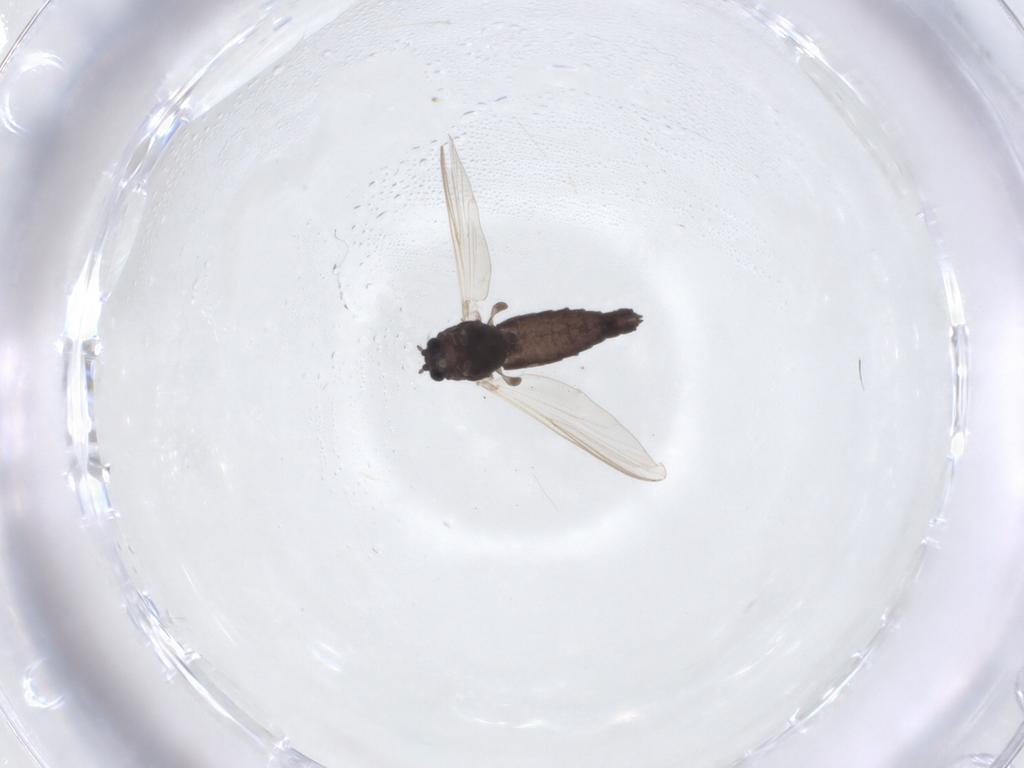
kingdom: Animalia
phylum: Arthropoda
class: Insecta
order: Diptera
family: Chironomidae
